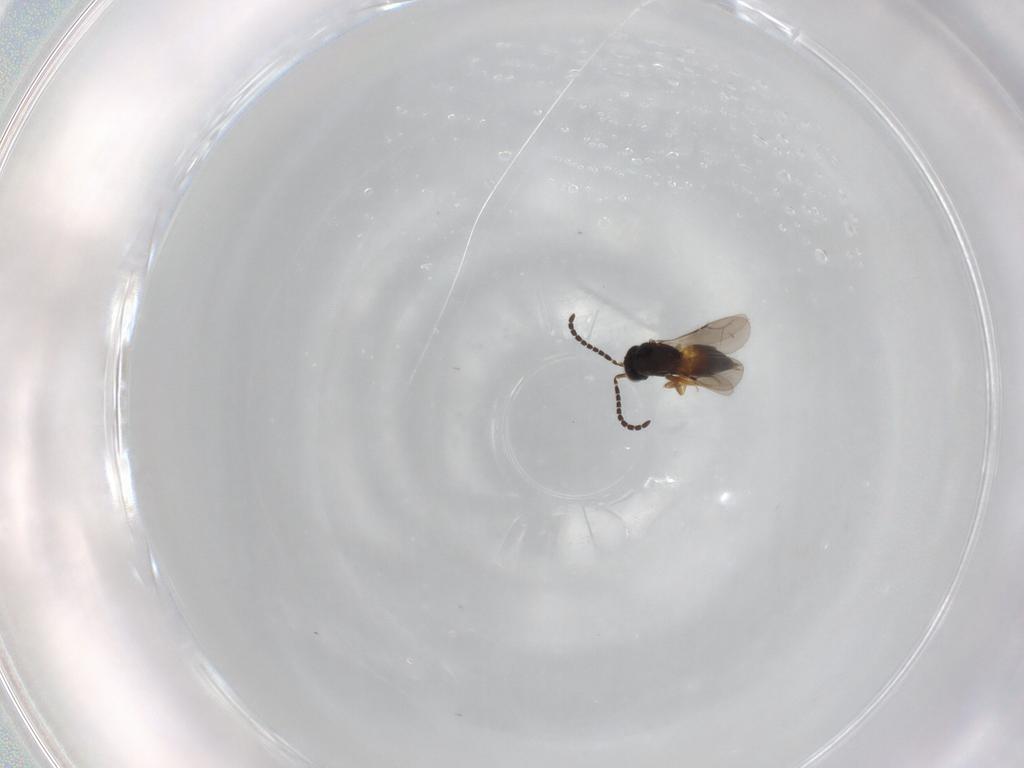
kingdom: Animalia
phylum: Arthropoda
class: Insecta
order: Hymenoptera
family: Ceraphronidae
